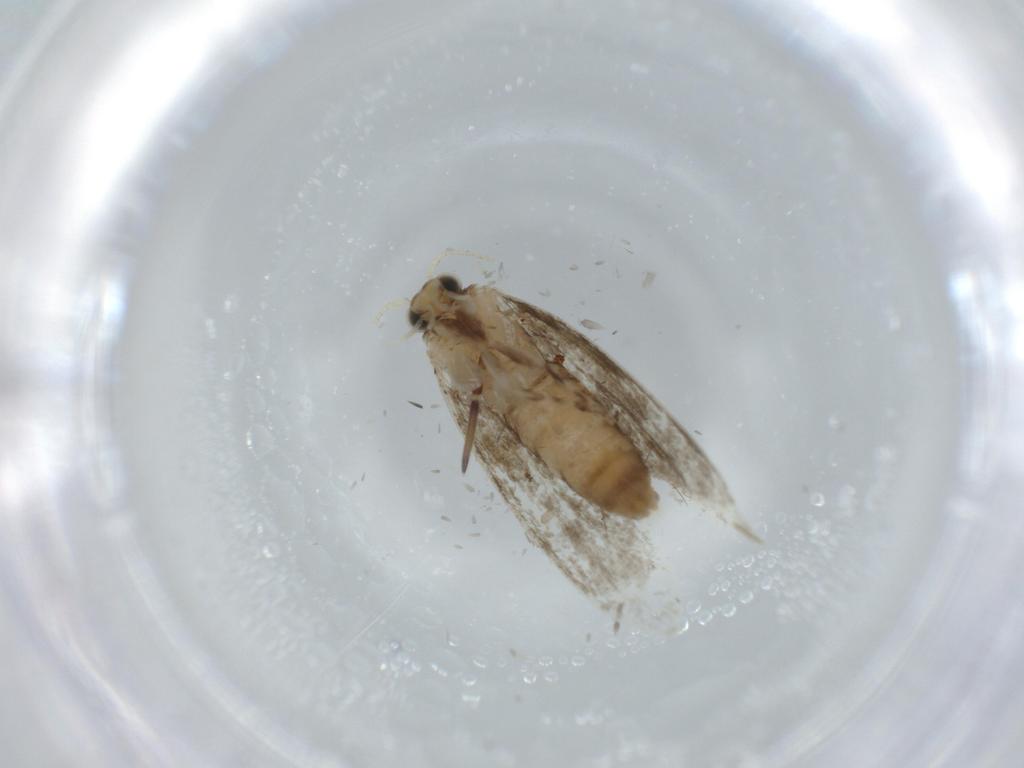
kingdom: Animalia
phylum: Arthropoda
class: Insecta
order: Lepidoptera
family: Tineidae
